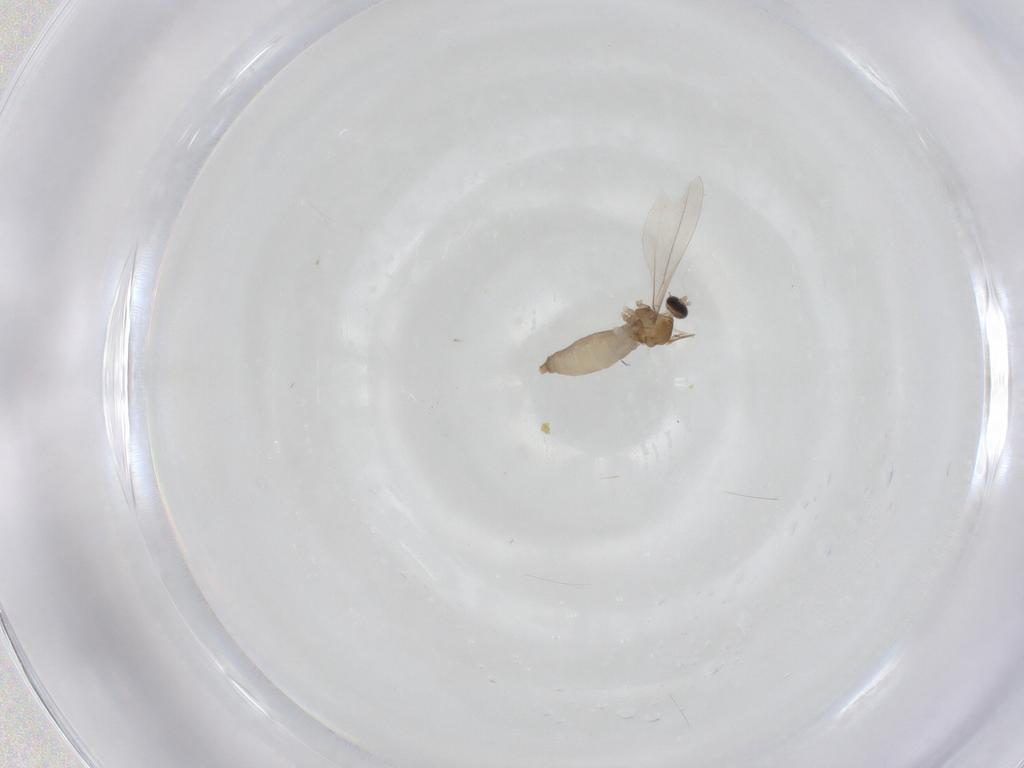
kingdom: Animalia
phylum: Arthropoda
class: Insecta
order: Diptera
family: Cecidomyiidae
